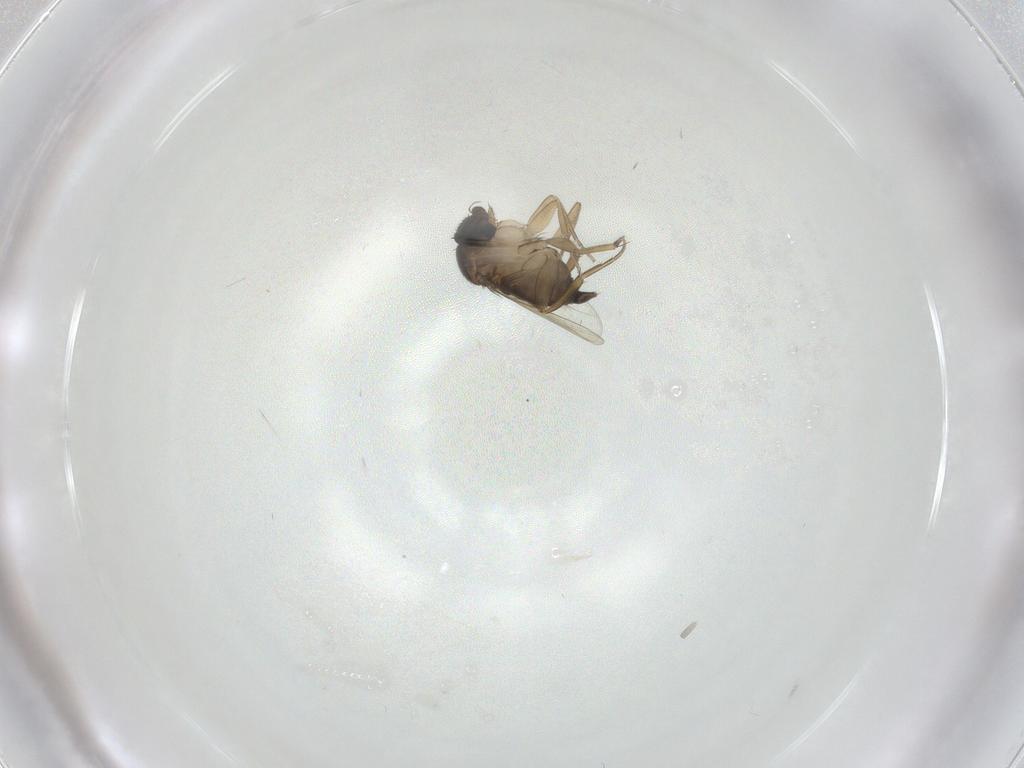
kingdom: Animalia
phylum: Arthropoda
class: Insecta
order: Diptera
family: Phoridae
